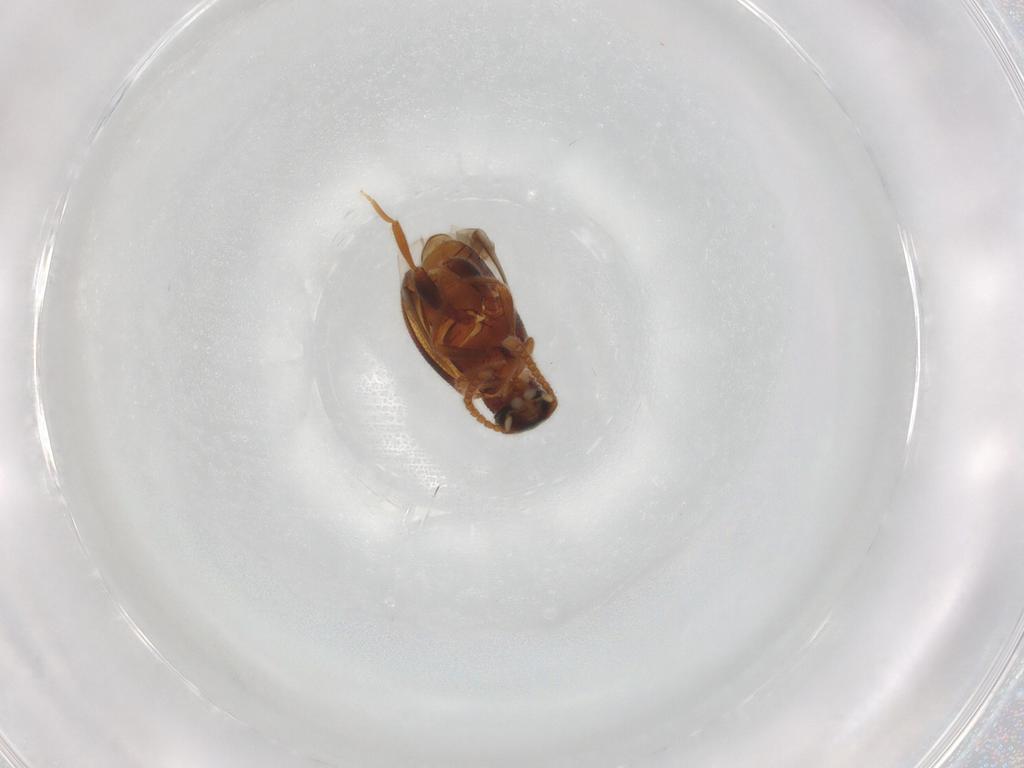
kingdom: Animalia
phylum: Arthropoda
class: Insecta
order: Coleoptera
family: Aderidae
